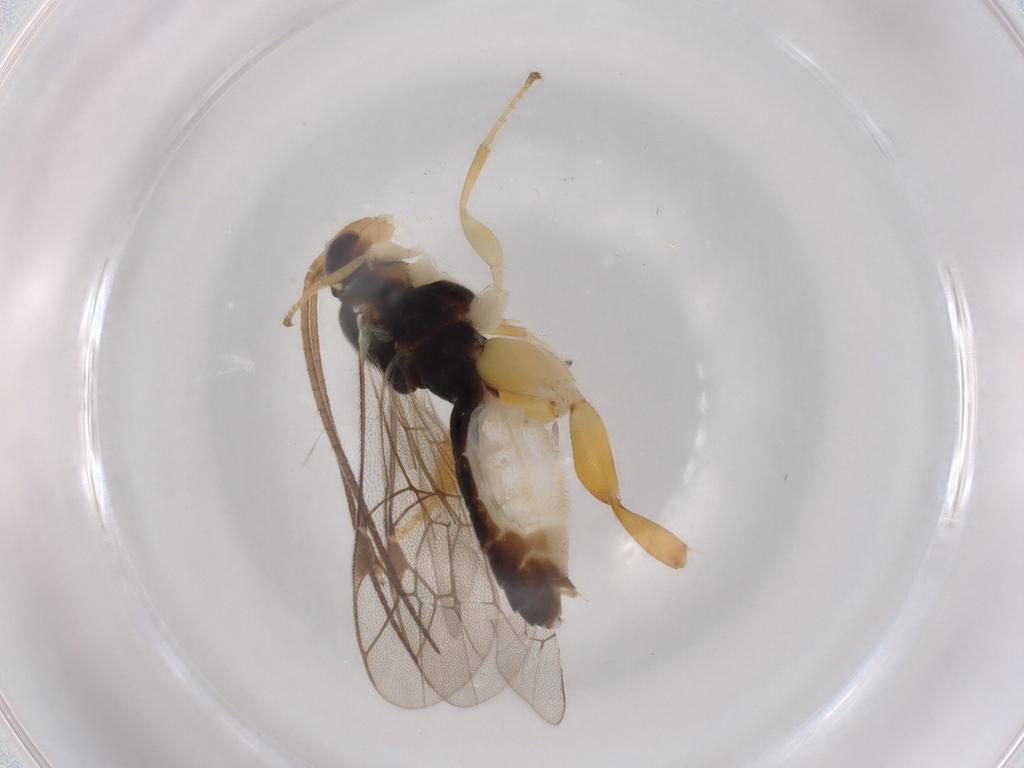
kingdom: Animalia
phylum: Arthropoda
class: Insecta
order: Hymenoptera
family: Ichneumonidae
